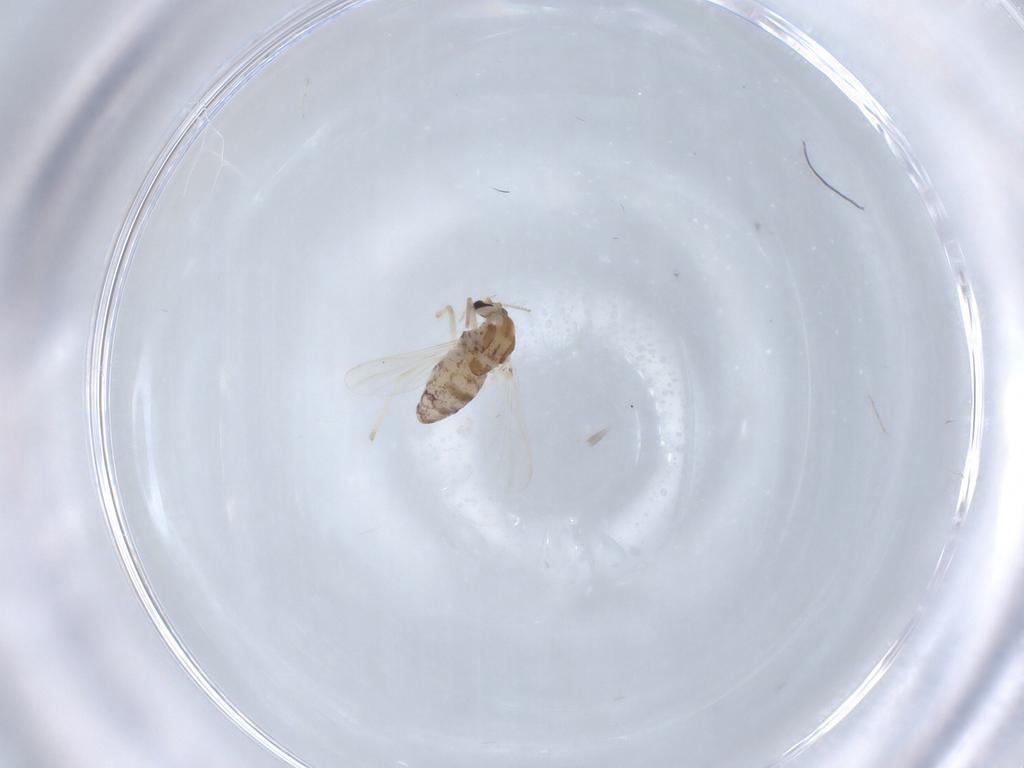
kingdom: Animalia
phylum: Arthropoda
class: Insecta
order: Diptera
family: Chironomidae
